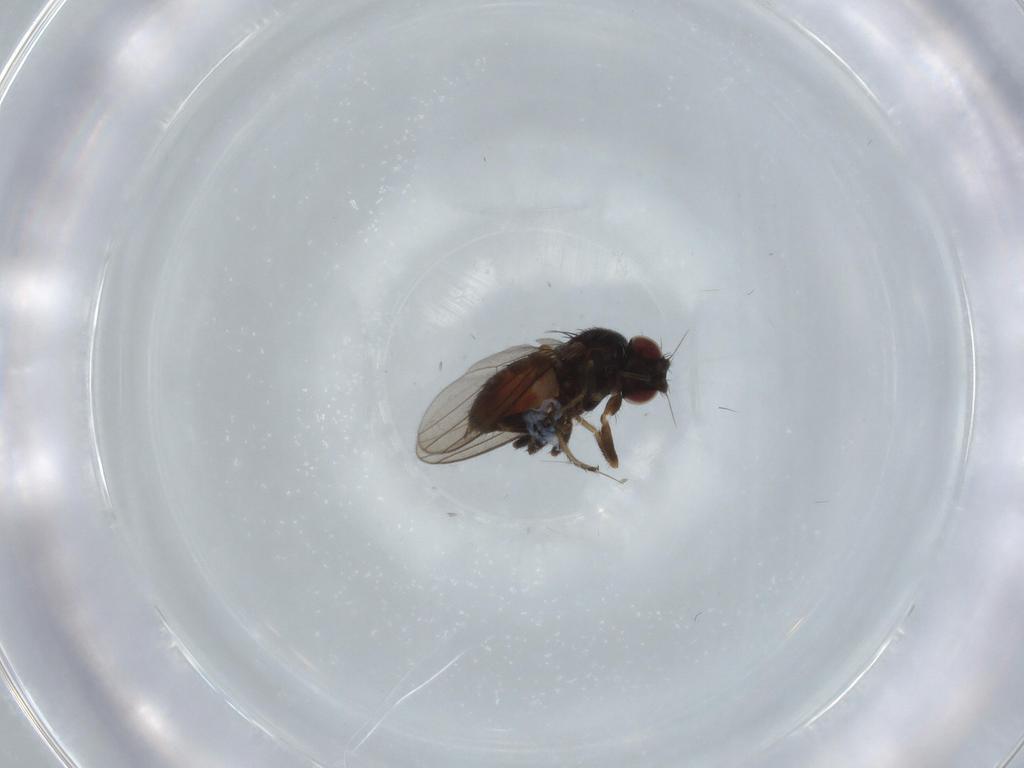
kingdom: Animalia
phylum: Arthropoda
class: Insecta
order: Diptera
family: Milichiidae
